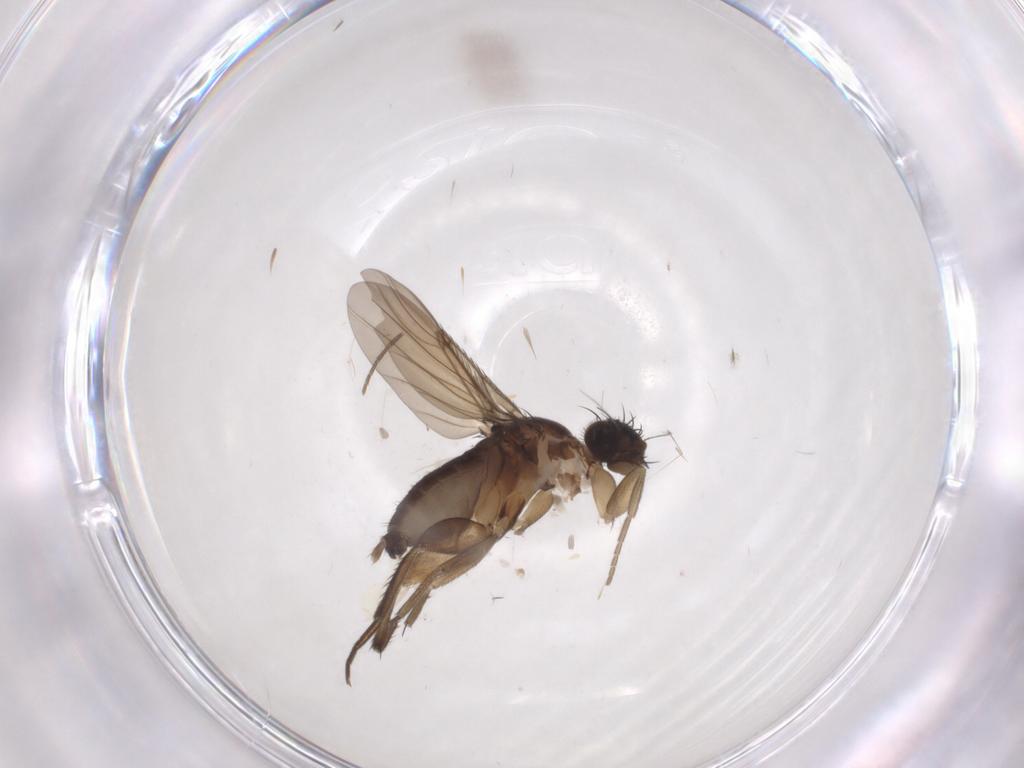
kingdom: Animalia
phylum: Arthropoda
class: Insecta
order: Diptera
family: Phoridae
